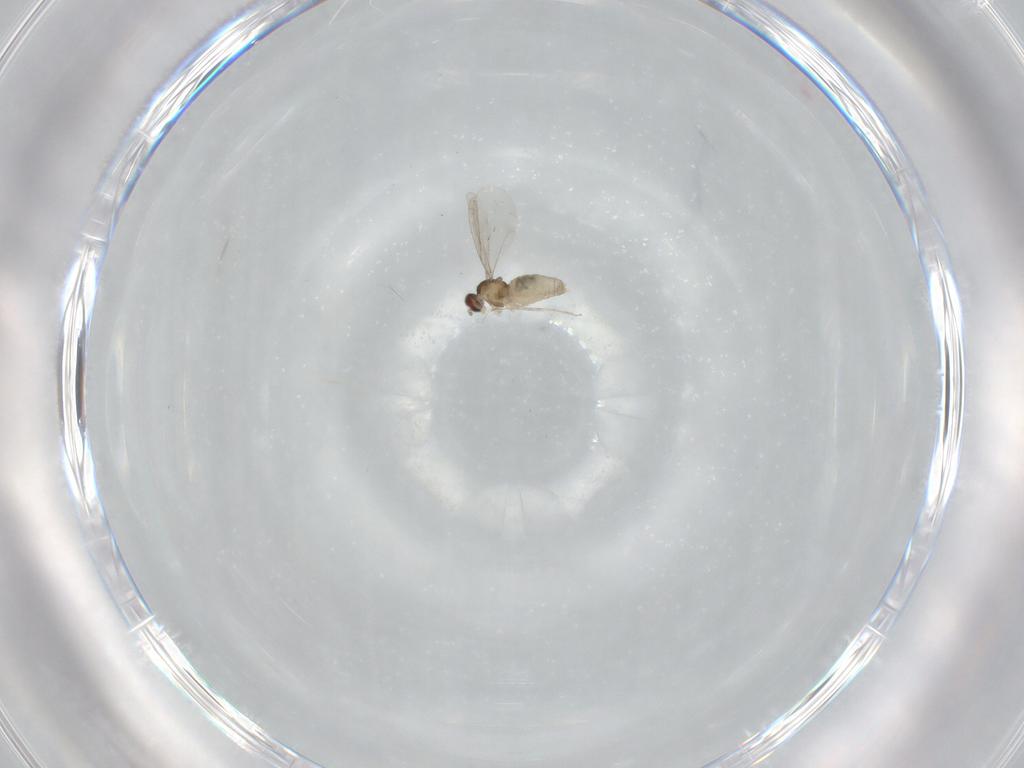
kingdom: Animalia
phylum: Arthropoda
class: Insecta
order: Diptera
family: Cecidomyiidae
